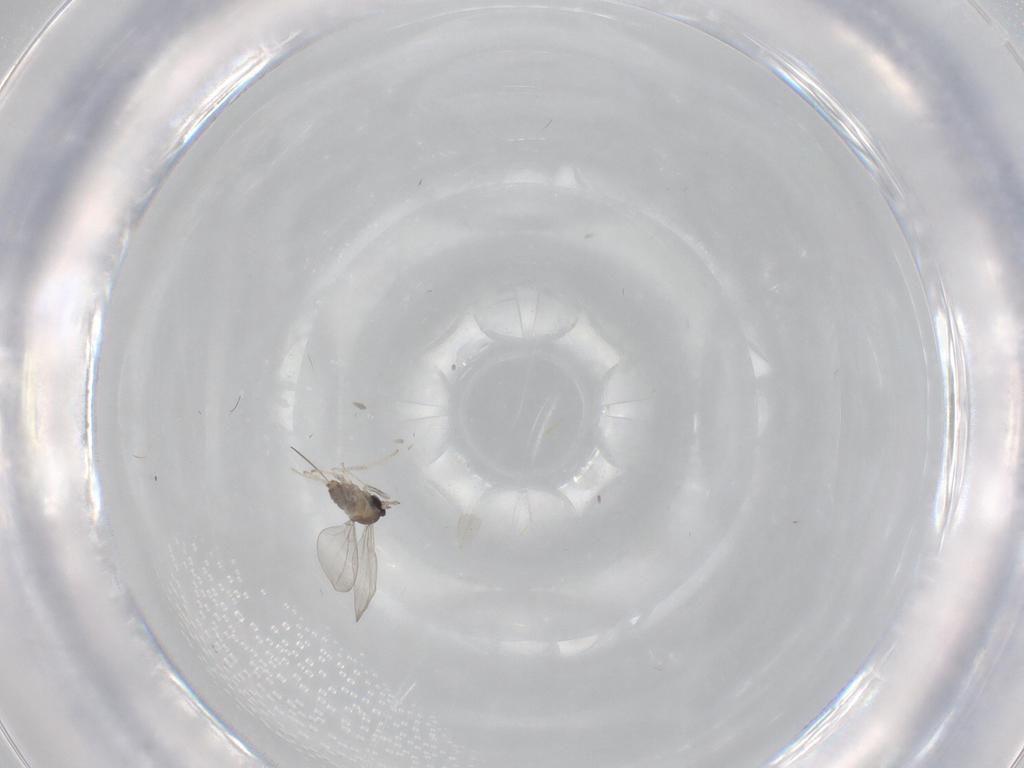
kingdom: Animalia
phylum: Arthropoda
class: Insecta
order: Diptera
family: Cecidomyiidae
